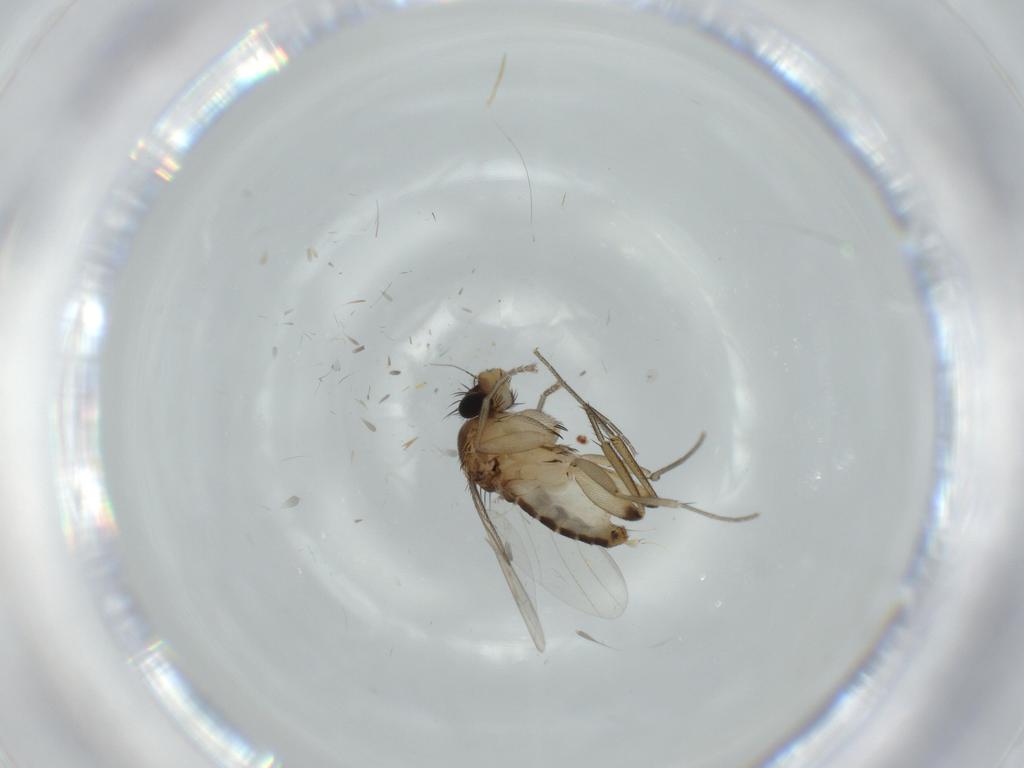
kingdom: Animalia
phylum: Arthropoda
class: Insecta
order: Diptera
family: Phoridae
